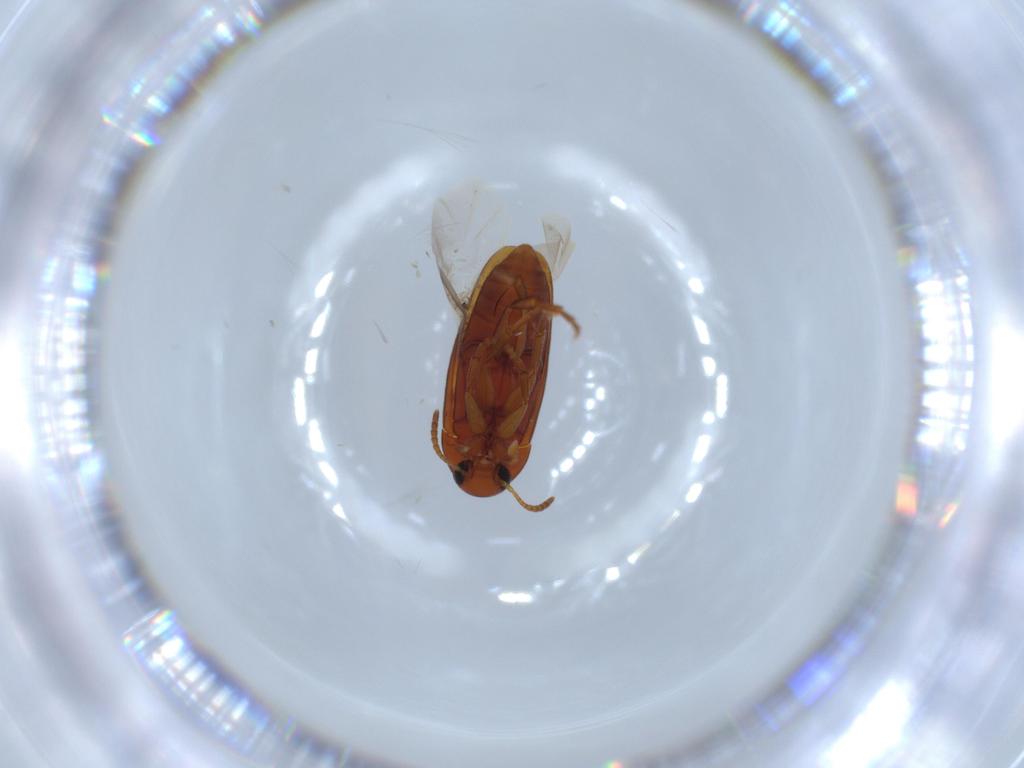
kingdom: Animalia
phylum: Arthropoda
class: Insecta
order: Coleoptera
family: Scraptiidae
